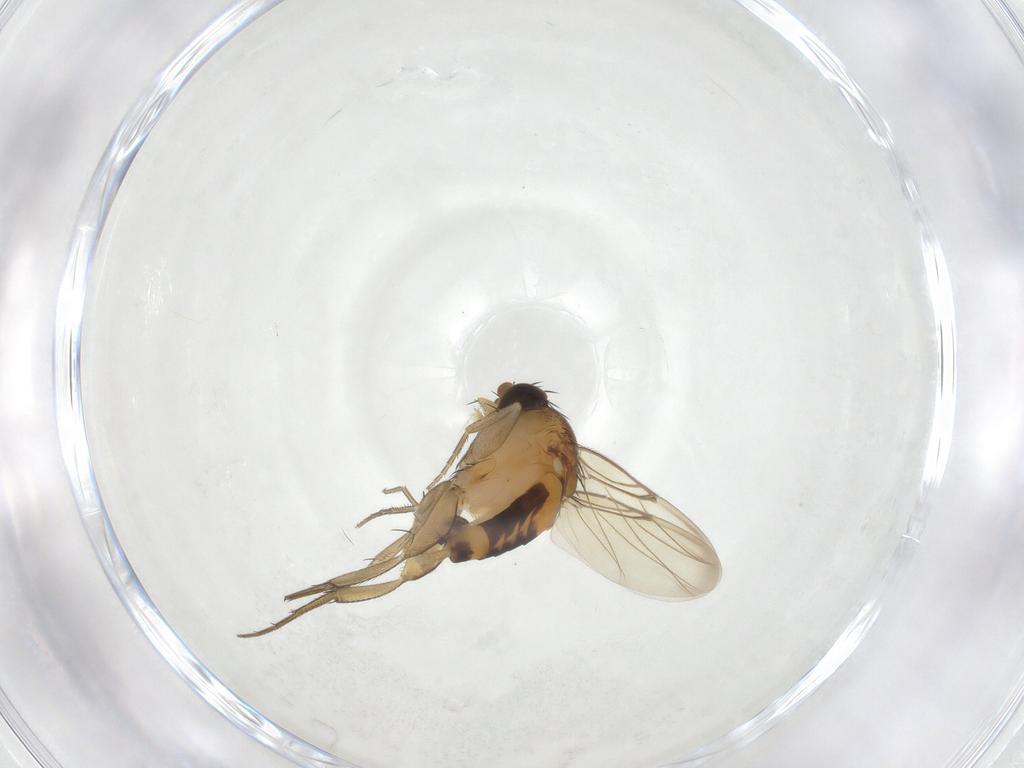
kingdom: Animalia
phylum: Arthropoda
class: Insecta
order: Diptera
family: Phoridae
